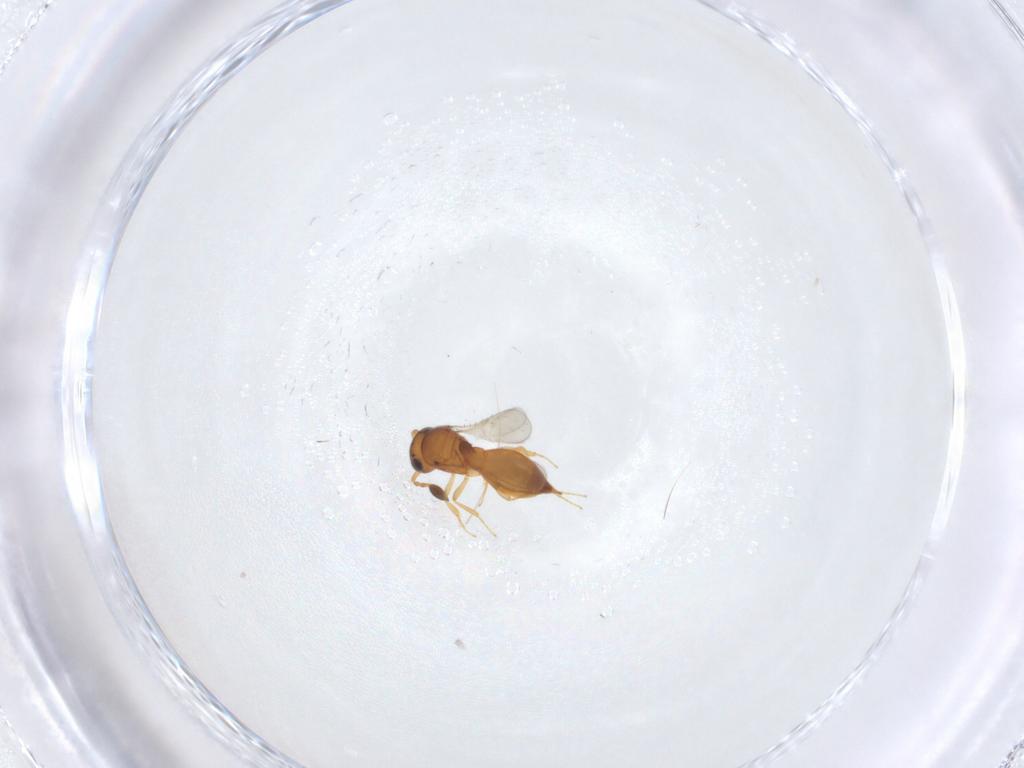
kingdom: Animalia
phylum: Arthropoda
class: Insecta
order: Hymenoptera
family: Scelionidae
